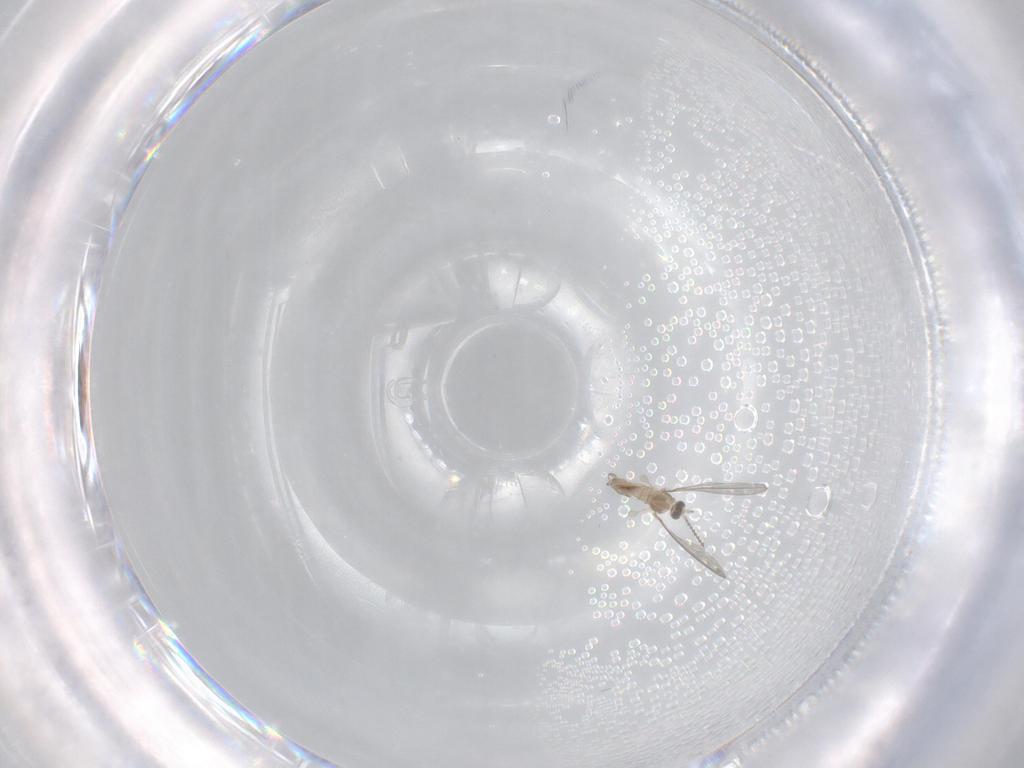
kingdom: Animalia
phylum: Arthropoda
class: Insecta
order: Diptera
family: Cecidomyiidae
